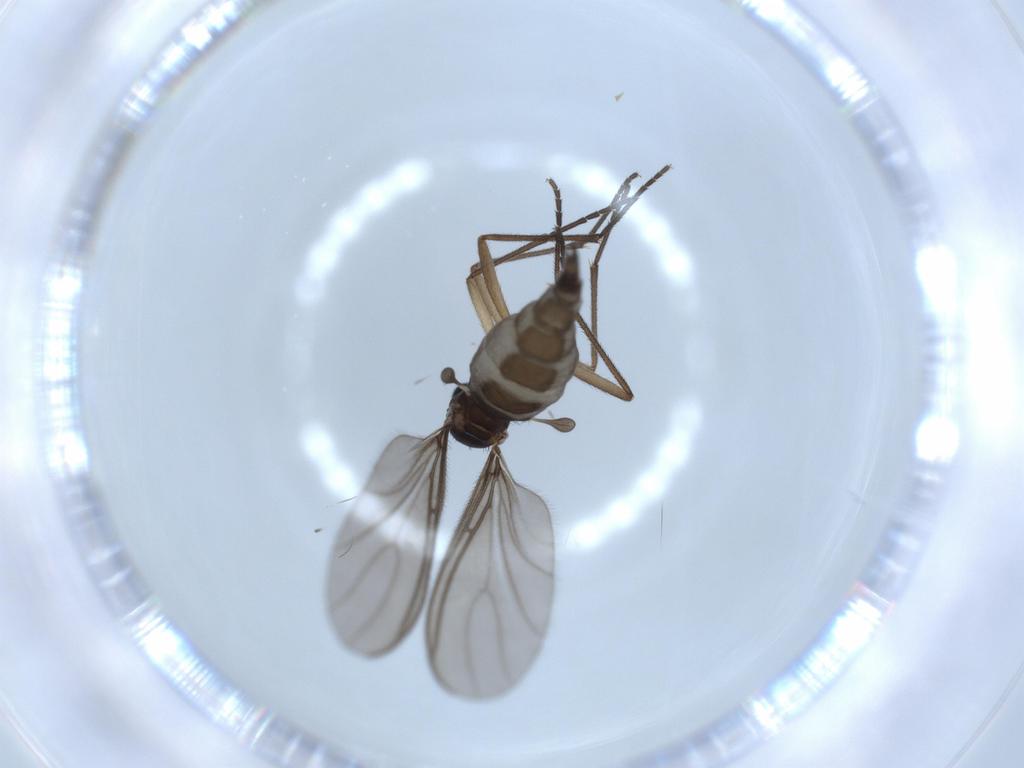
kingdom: Animalia
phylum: Arthropoda
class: Insecta
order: Diptera
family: Sciaridae
